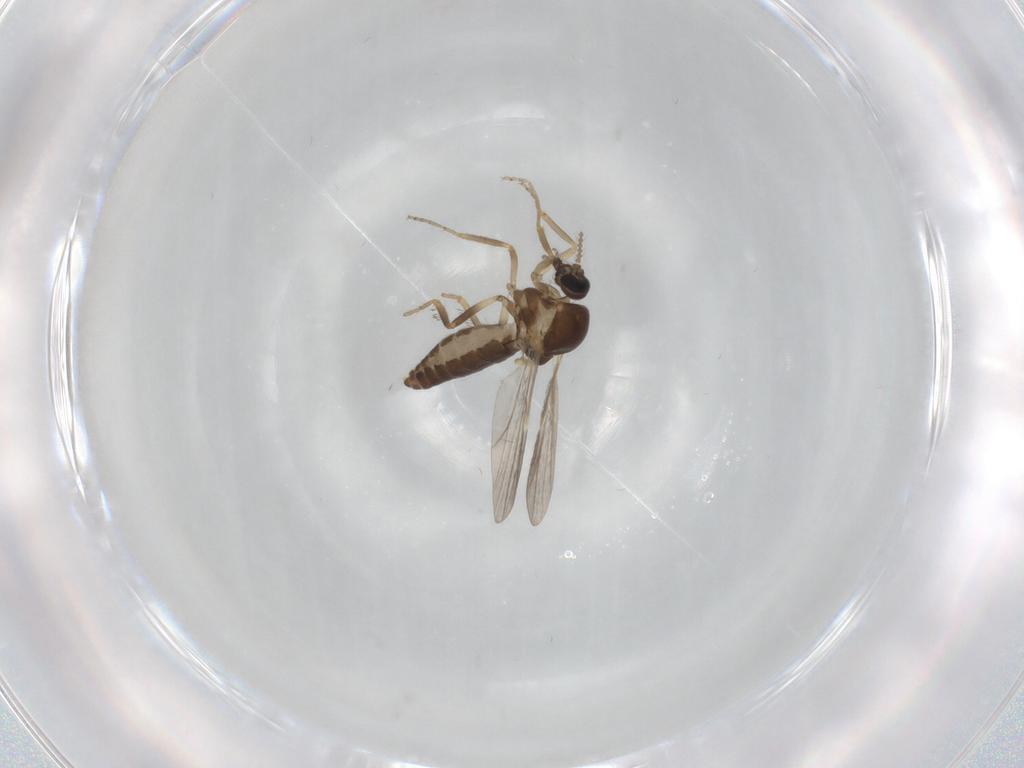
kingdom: Animalia
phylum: Arthropoda
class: Insecta
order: Diptera
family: Ceratopogonidae
